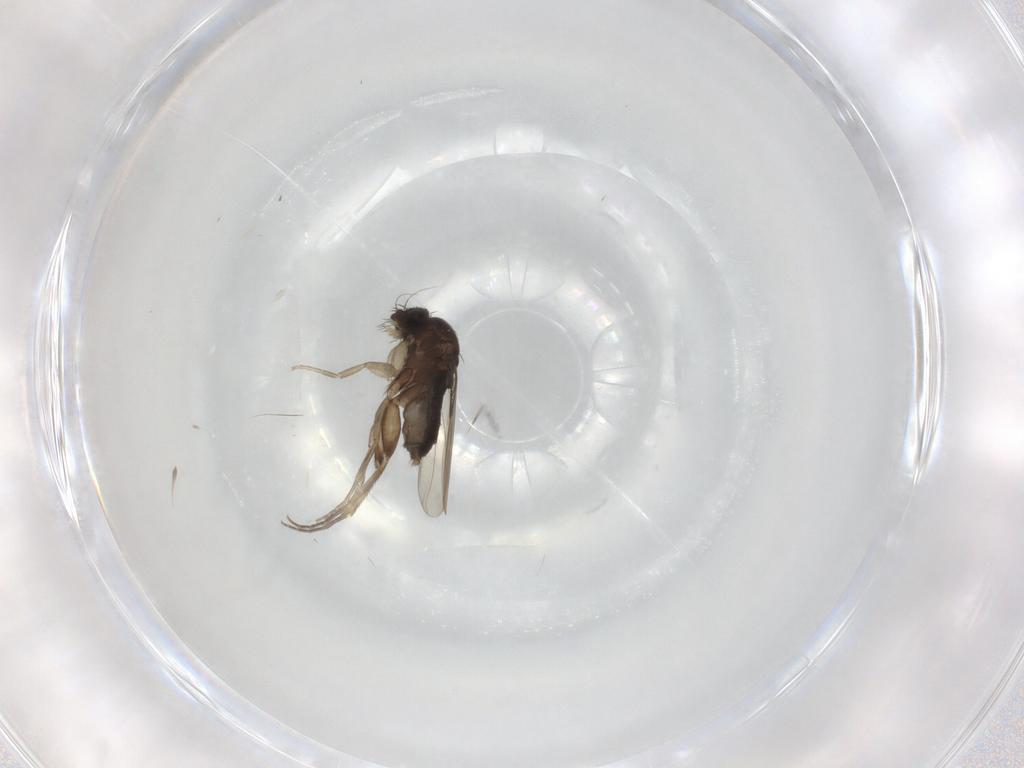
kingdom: Animalia
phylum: Arthropoda
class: Insecta
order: Diptera
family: Phoridae
